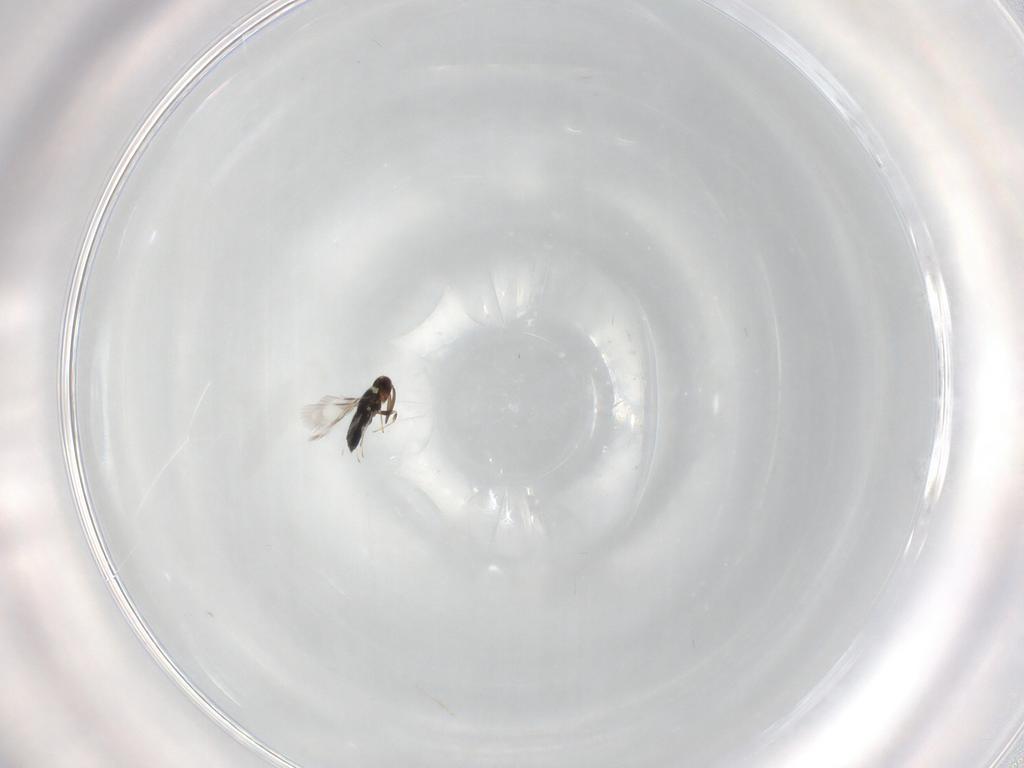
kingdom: Animalia
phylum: Arthropoda
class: Insecta
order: Hymenoptera
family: Signiphoridae
